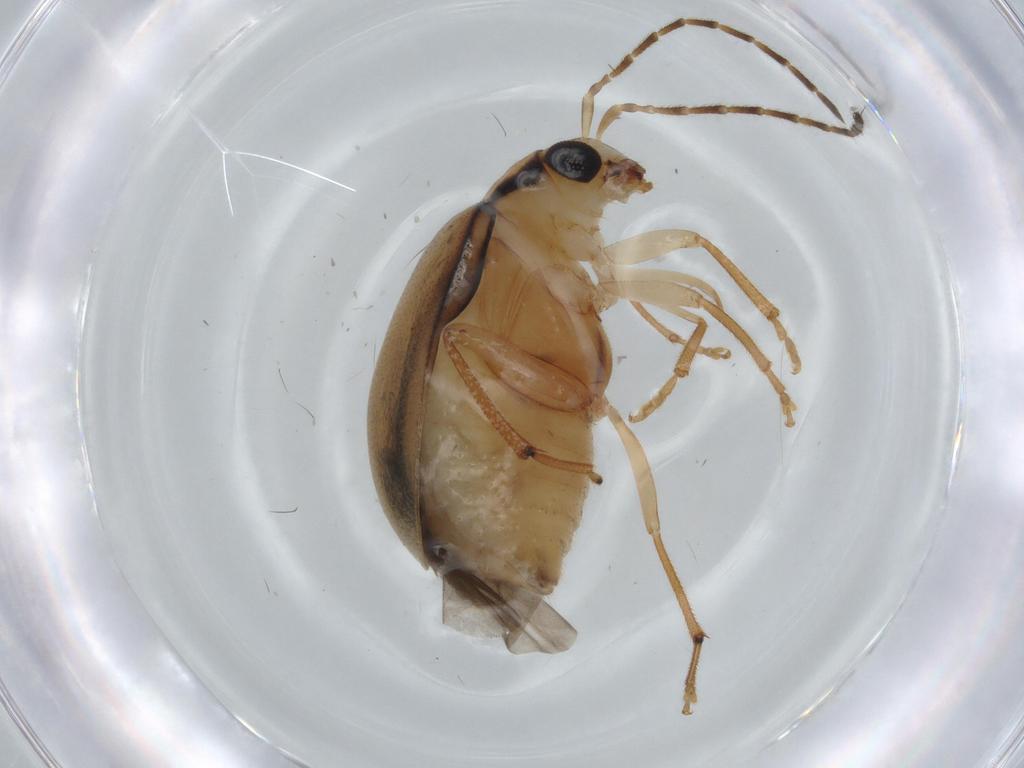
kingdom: Animalia
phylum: Arthropoda
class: Insecta
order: Coleoptera
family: Chrysomelidae
